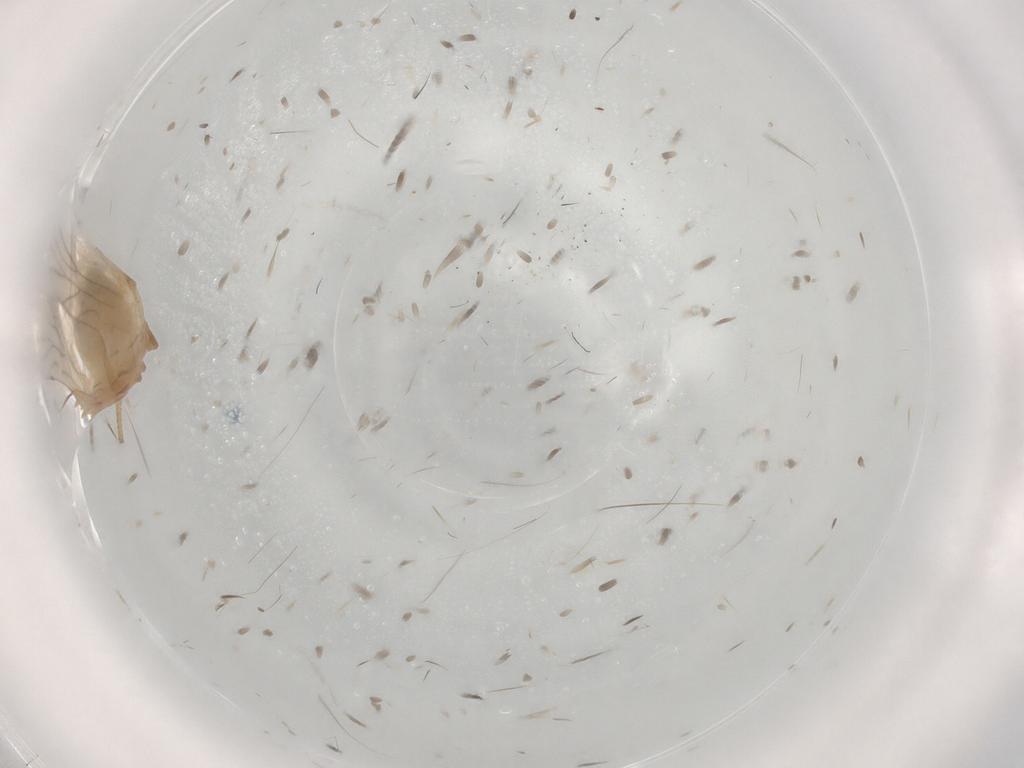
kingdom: Animalia
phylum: Arthropoda
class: Insecta
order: Psocodea
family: Caeciliusidae
